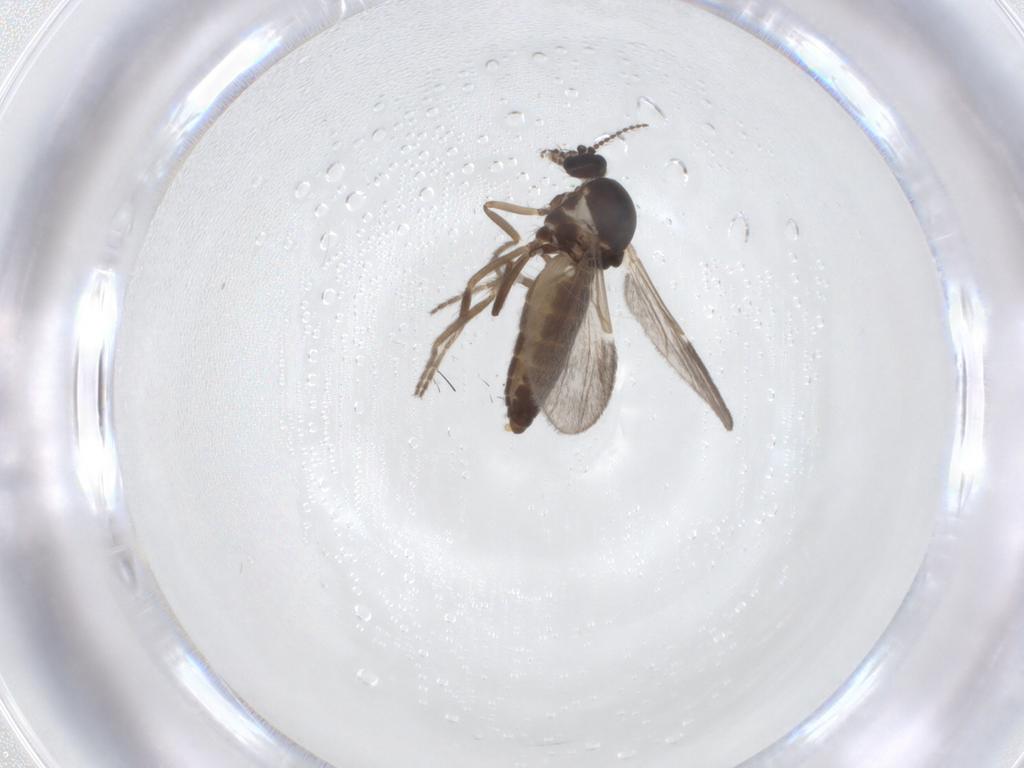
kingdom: Animalia
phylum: Arthropoda
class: Insecta
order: Diptera
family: Ceratopogonidae
